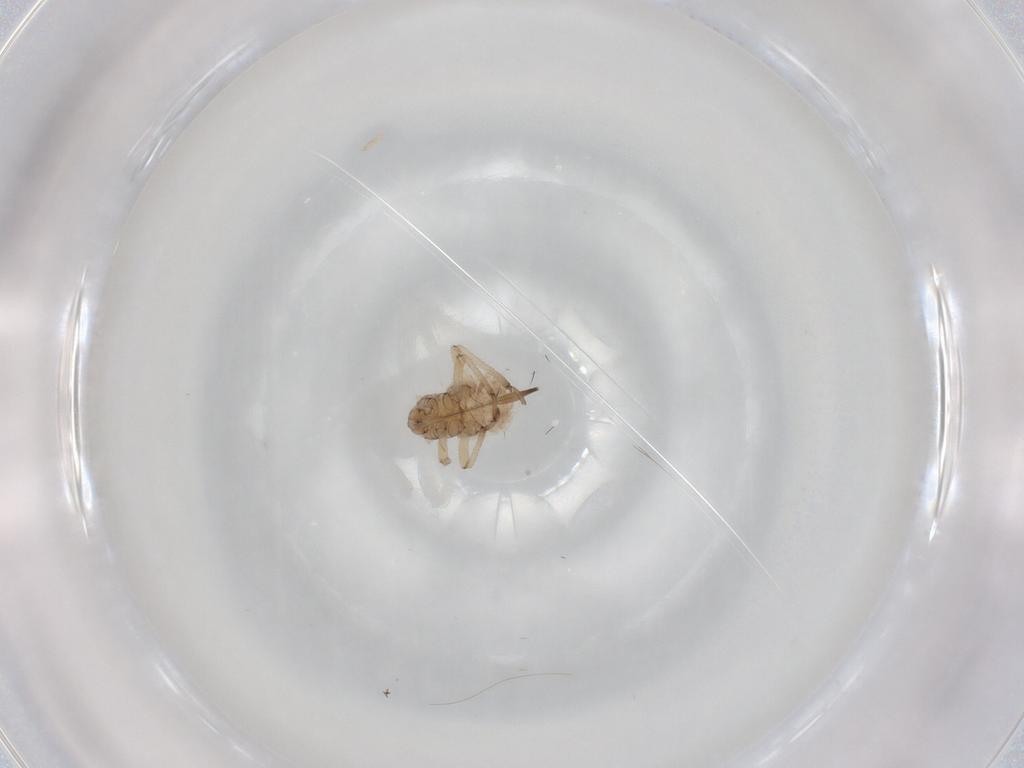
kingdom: Animalia
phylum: Arthropoda
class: Insecta
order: Hemiptera
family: Aphididae
